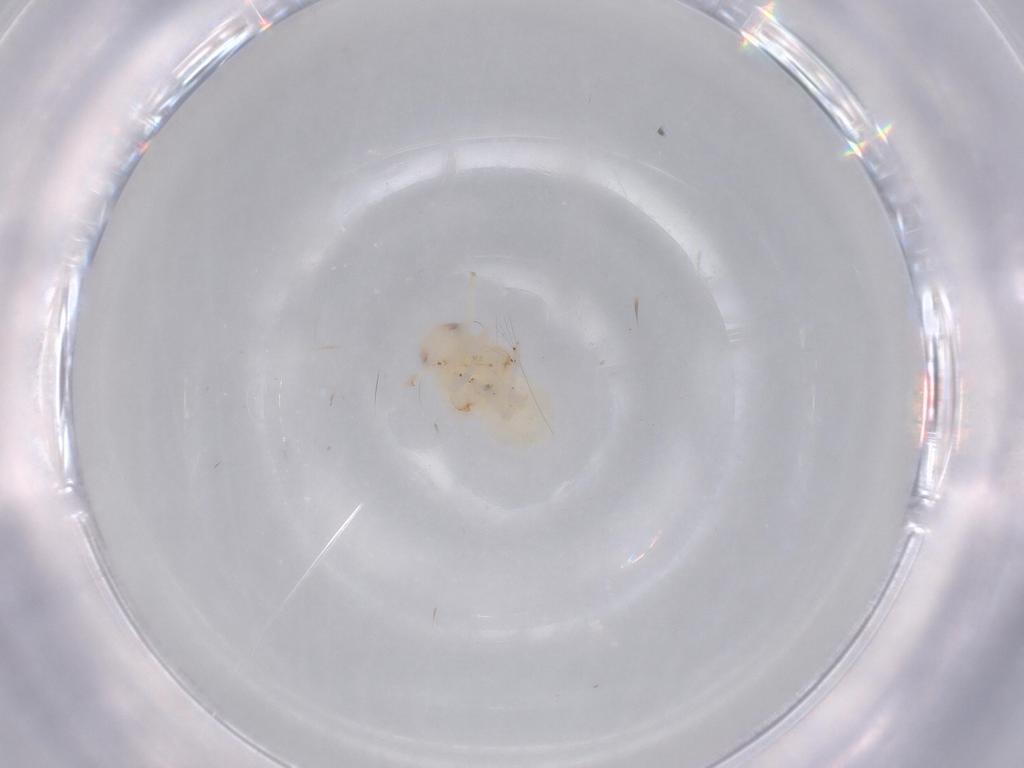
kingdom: Animalia
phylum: Arthropoda
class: Insecta
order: Hemiptera
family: Nogodinidae
